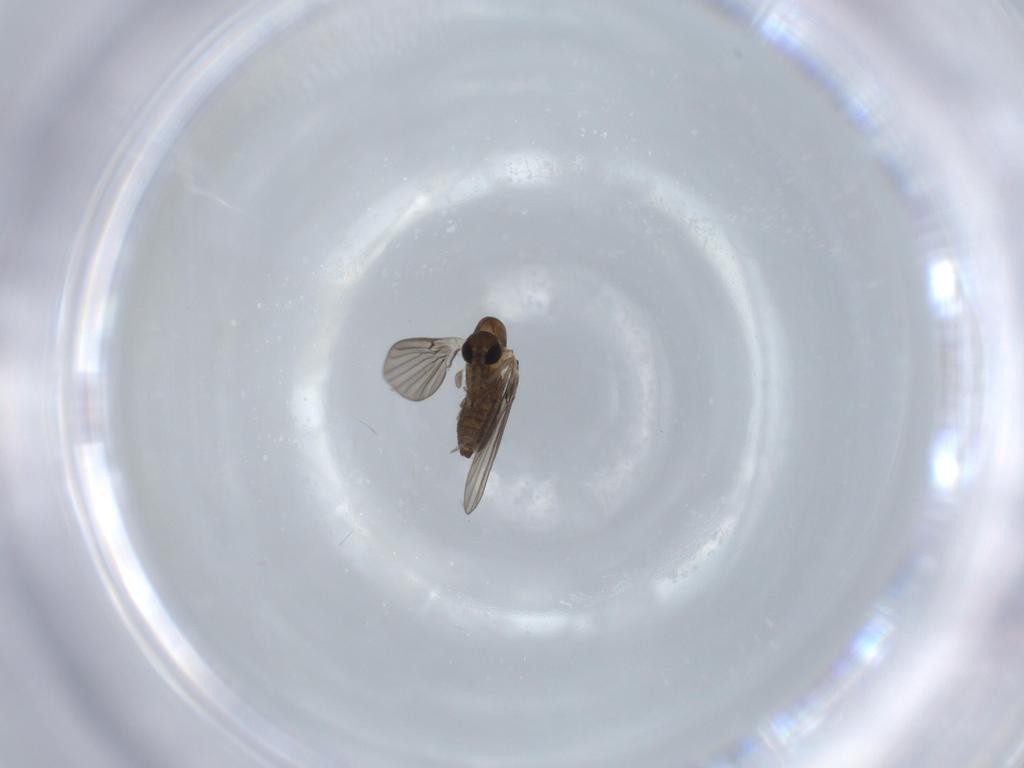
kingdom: Animalia
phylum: Arthropoda
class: Insecta
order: Diptera
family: Psychodidae
